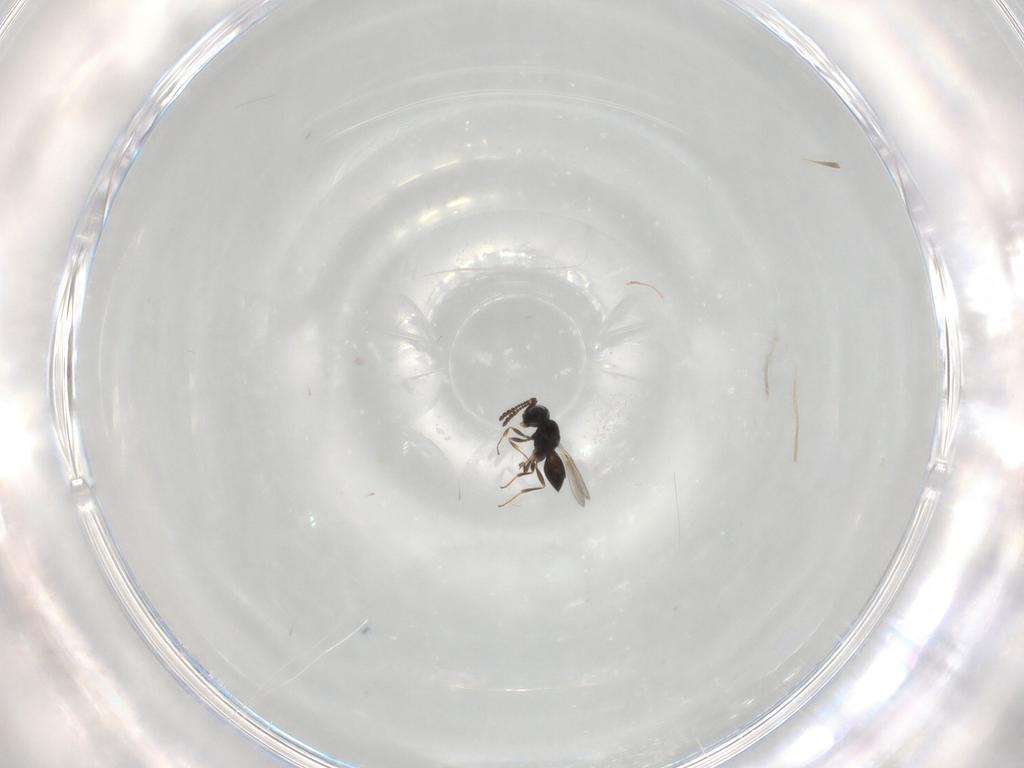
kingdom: Animalia
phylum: Arthropoda
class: Insecta
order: Hymenoptera
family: Scelionidae
